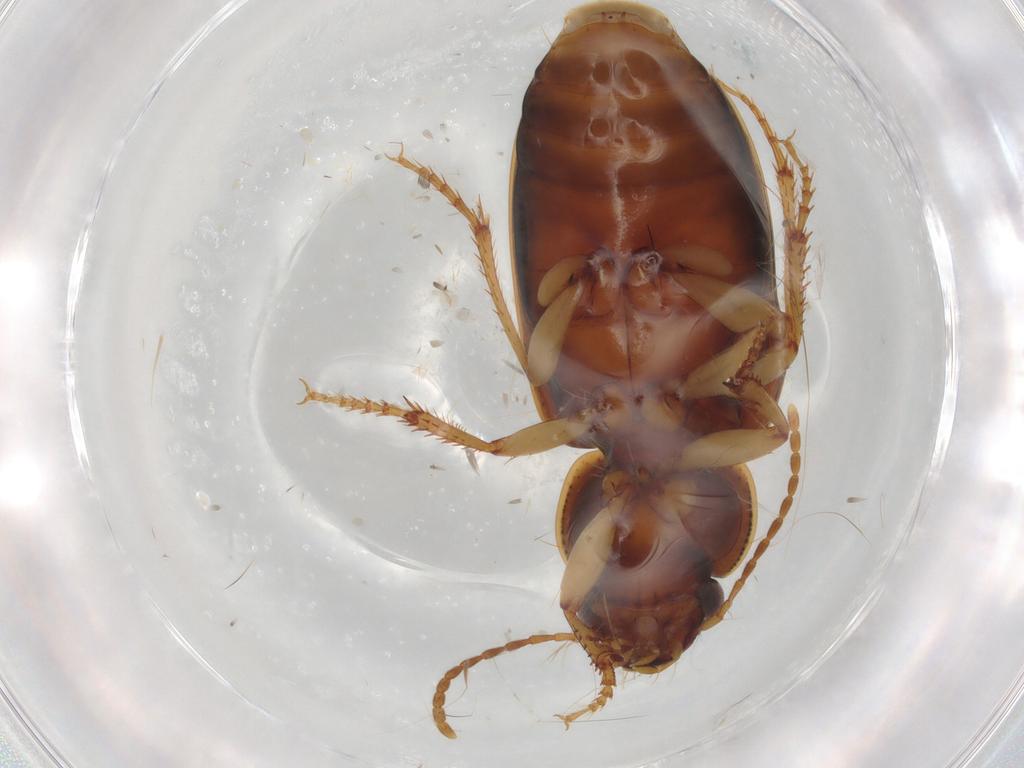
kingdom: Animalia
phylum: Arthropoda
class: Insecta
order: Coleoptera
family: Carabidae
